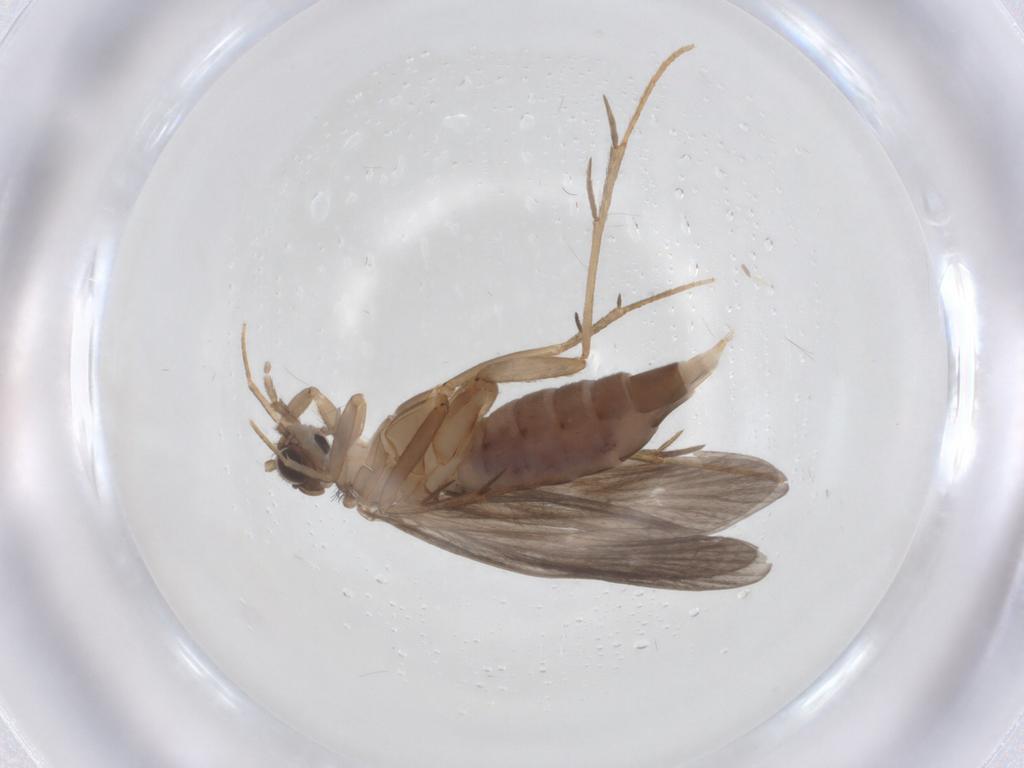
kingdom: Animalia
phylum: Arthropoda
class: Insecta
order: Trichoptera
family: Philopotamidae
